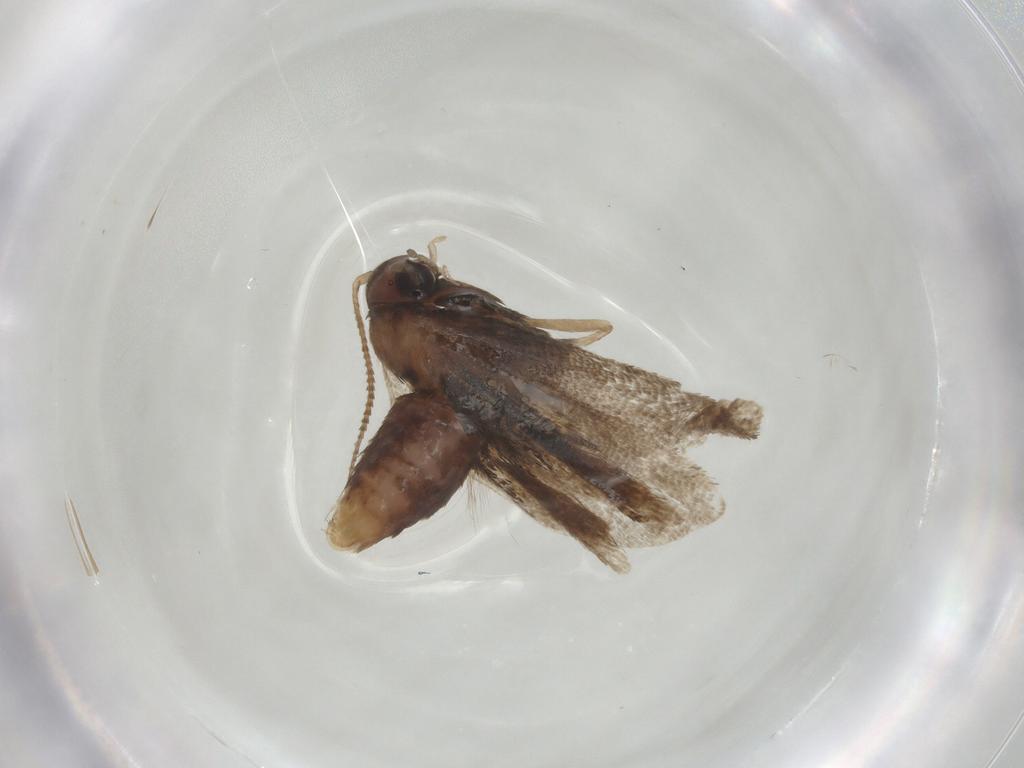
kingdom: Animalia
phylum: Arthropoda
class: Insecta
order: Lepidoptera
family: Tortricidae
